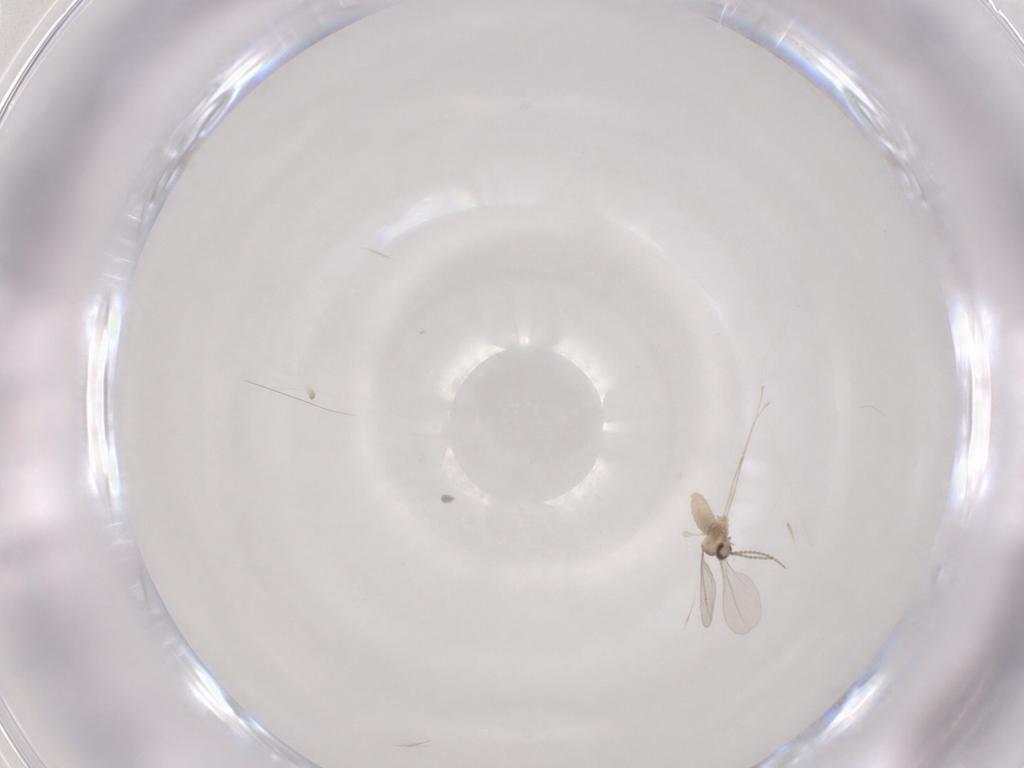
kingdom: Animalia
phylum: Arthropoda
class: Insecta
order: Diptera
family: Cecidomyiidae
